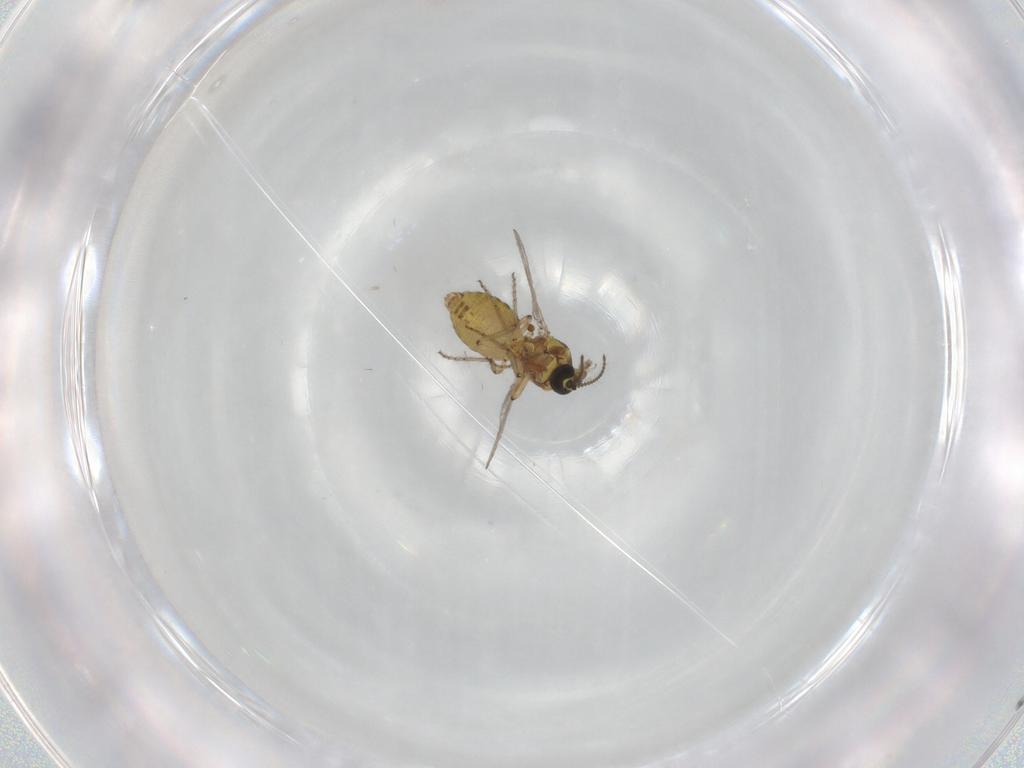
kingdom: Animalia
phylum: Arthropoda
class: Insecta
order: Diptera
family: Ceratopogonidae
